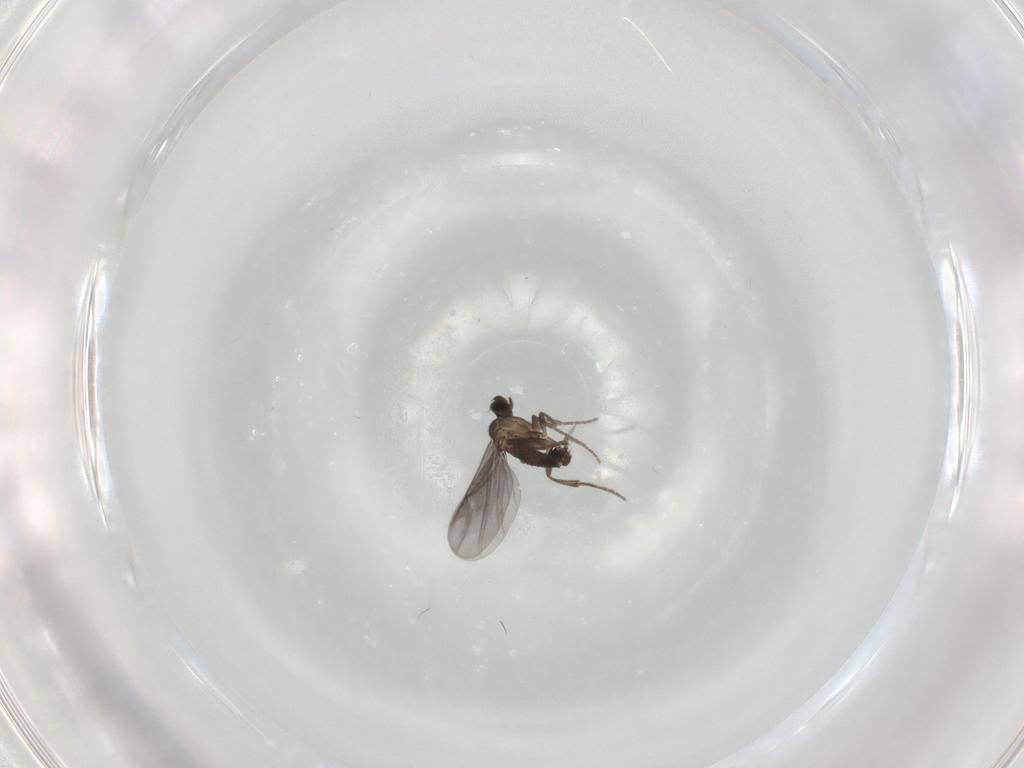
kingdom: Animalia
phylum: Arthropoda
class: Insecta
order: Diptera
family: Phoridae
